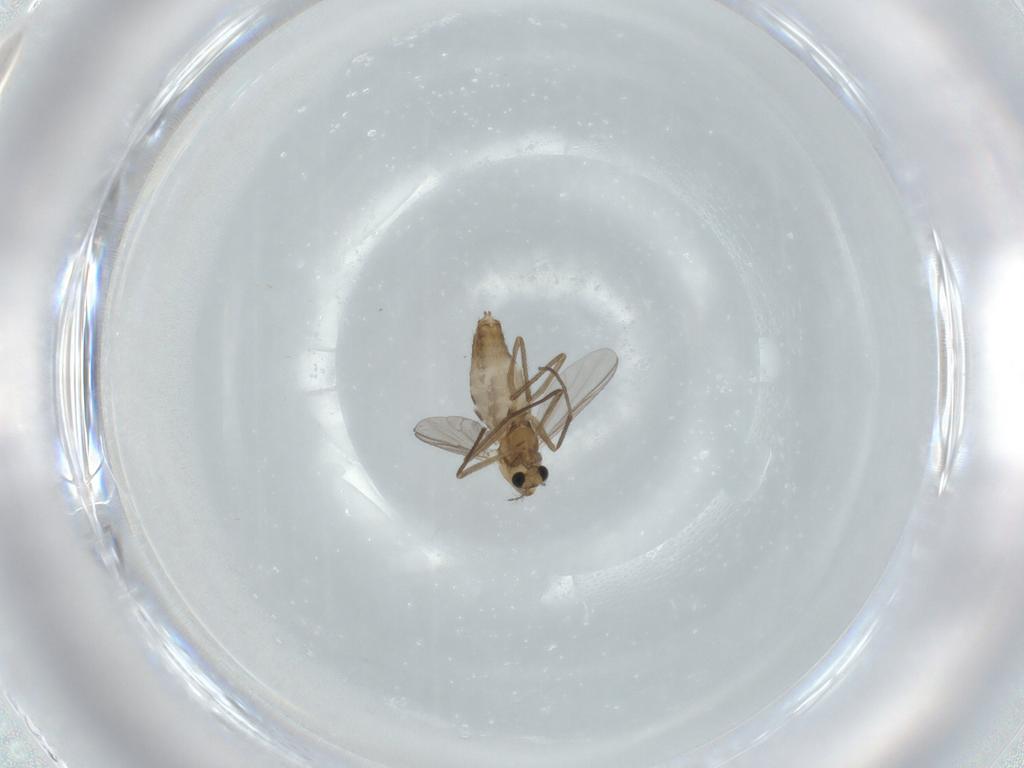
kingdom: Animalia
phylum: Arthropoda
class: Insecta
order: Diptera
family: Chironomidae
